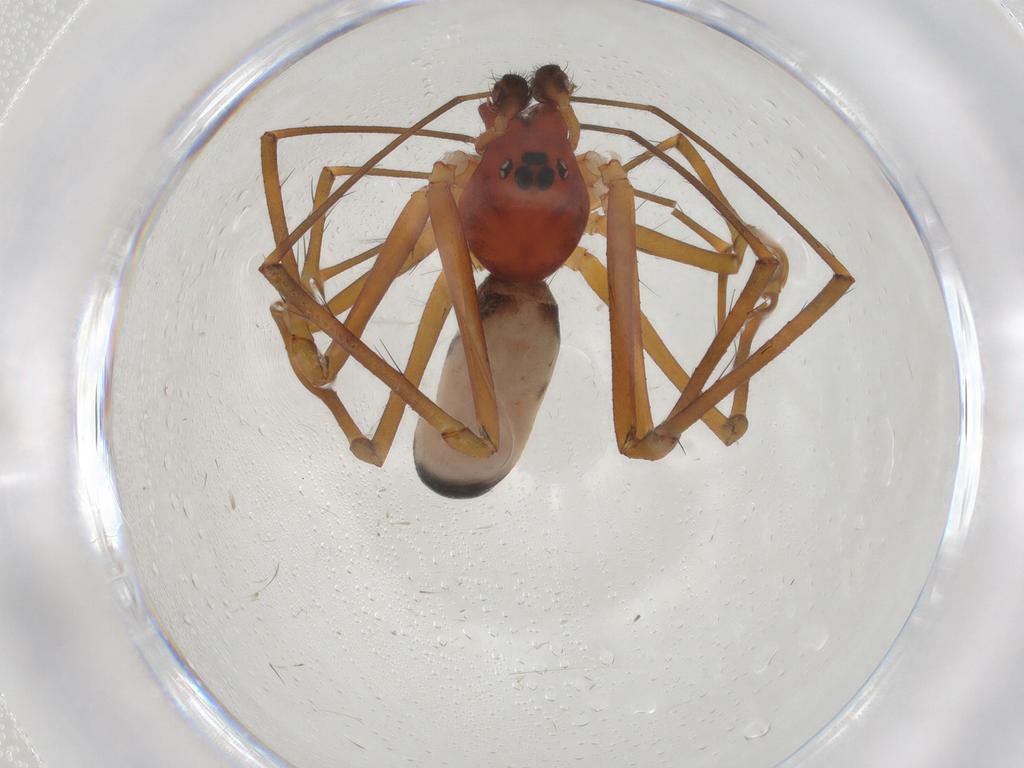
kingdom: Animalia
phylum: Arthropoda
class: Arachnida
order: Araneae
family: Linyphiidae
